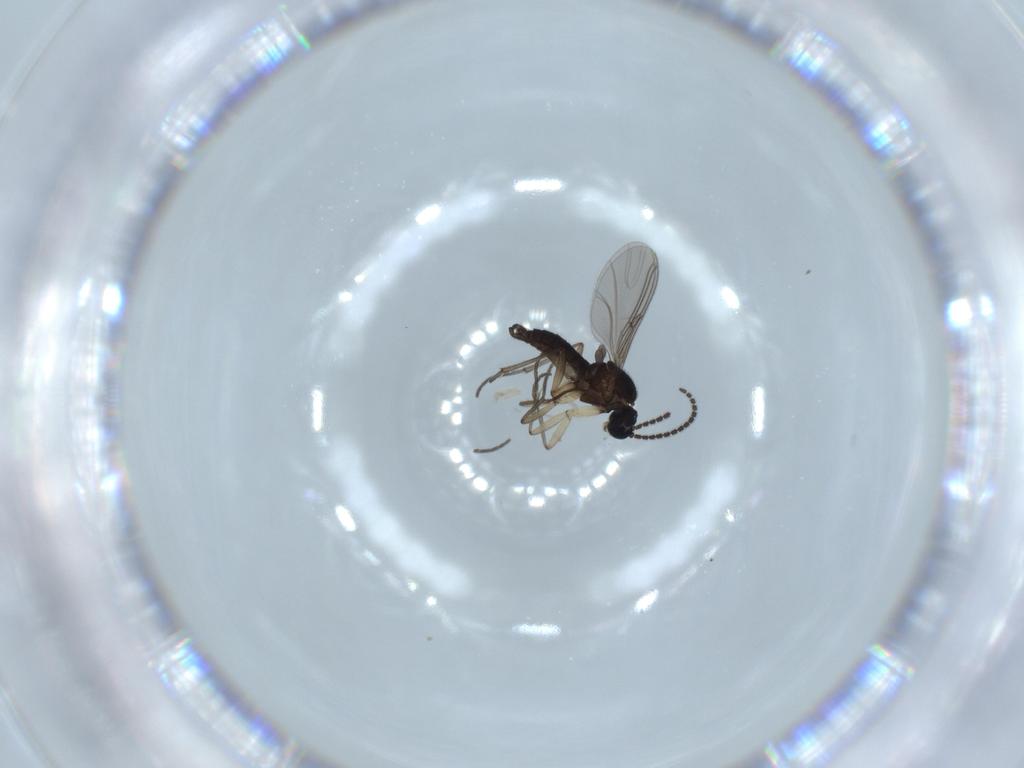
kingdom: Animalia
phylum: Arthropoda
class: Insecta
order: Diptera
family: Sciaridae
